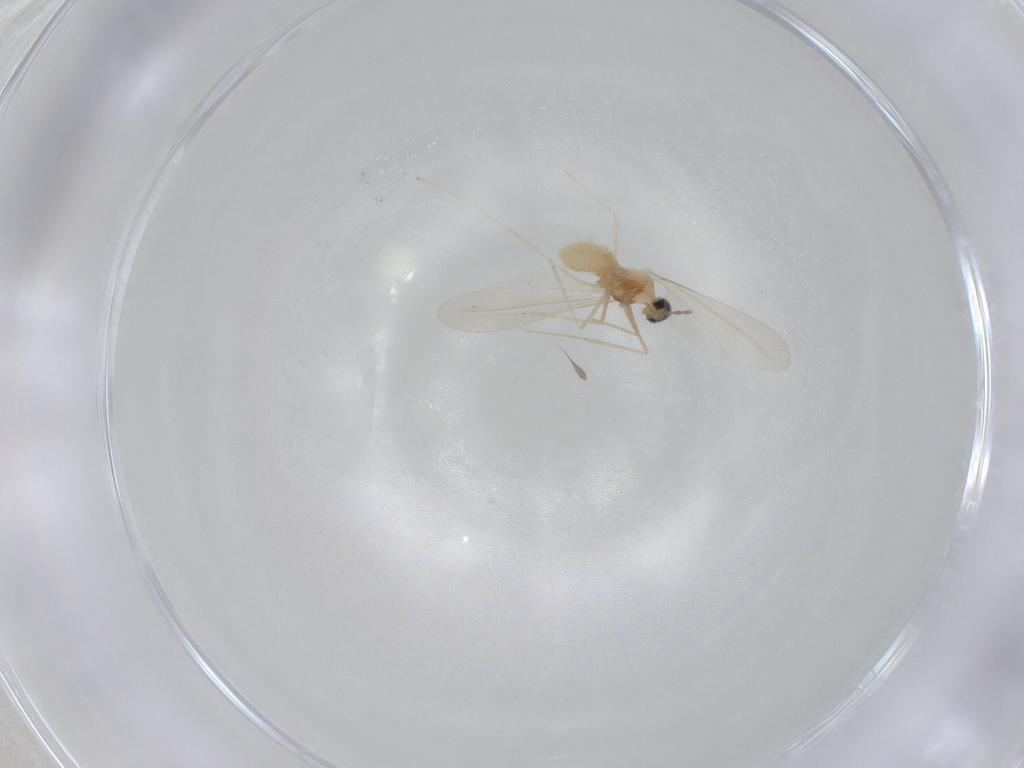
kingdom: Animalia
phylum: Arthropoda
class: Insecta
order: Diptera
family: Cecidomyiidae
